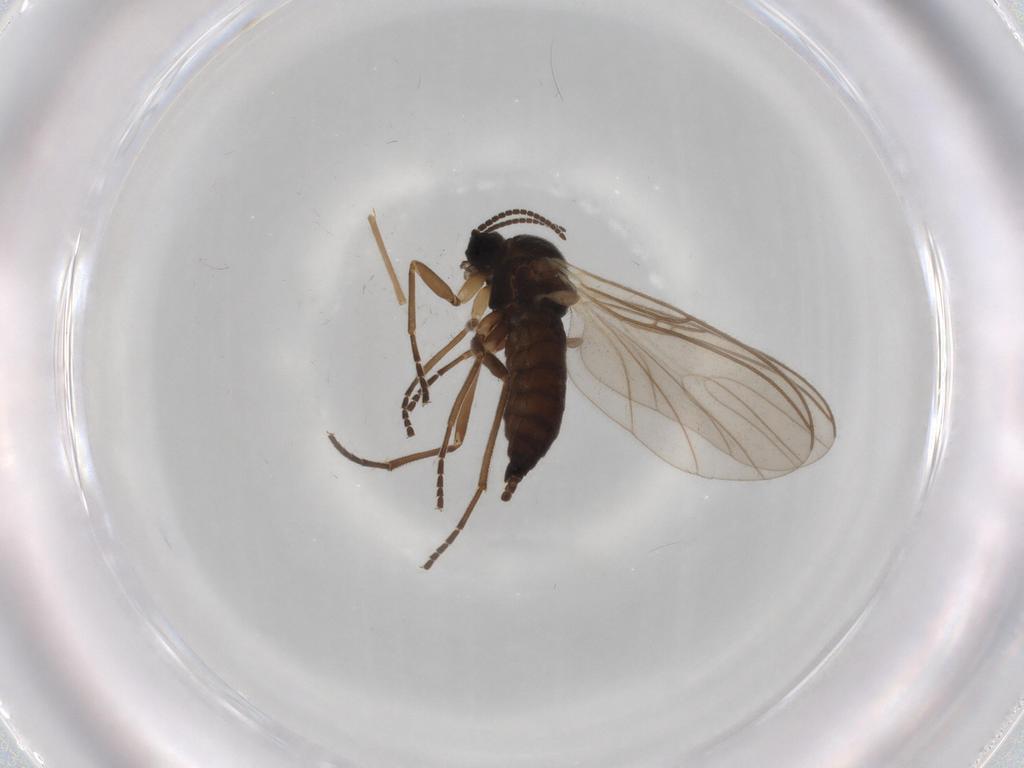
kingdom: Animalia
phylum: Arthropoda
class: Insecta
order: Diptera
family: Sciaridae
